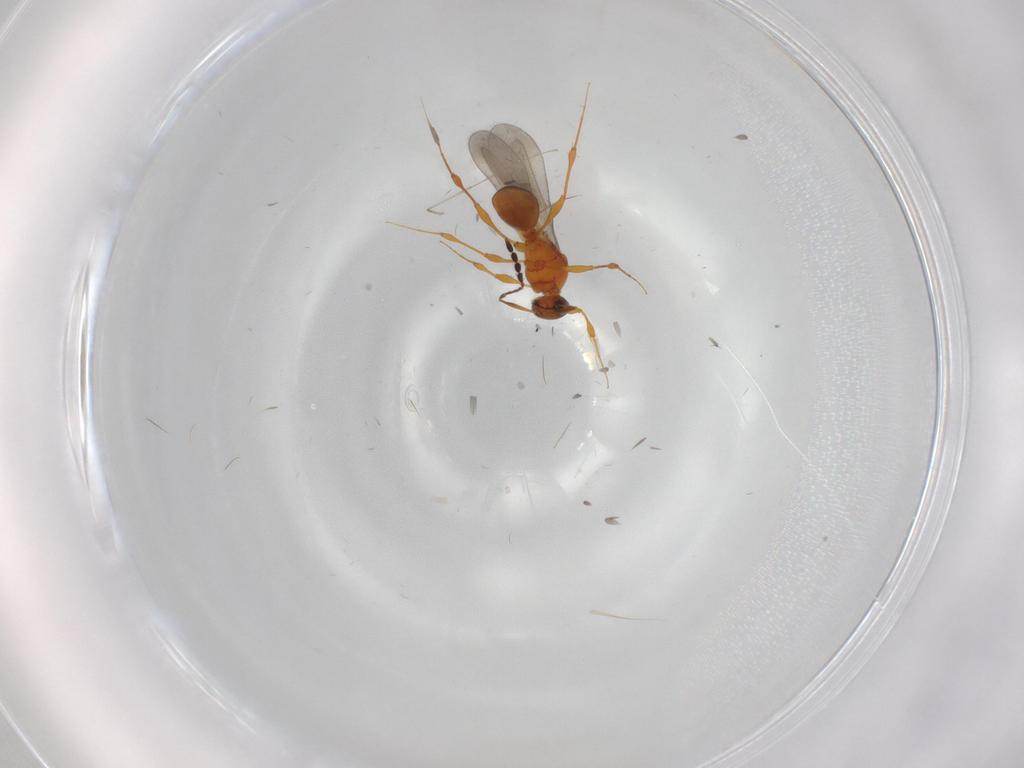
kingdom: Animalia
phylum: Arthropoda
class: Insecta
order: Hymenoptera
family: Platygastridae
